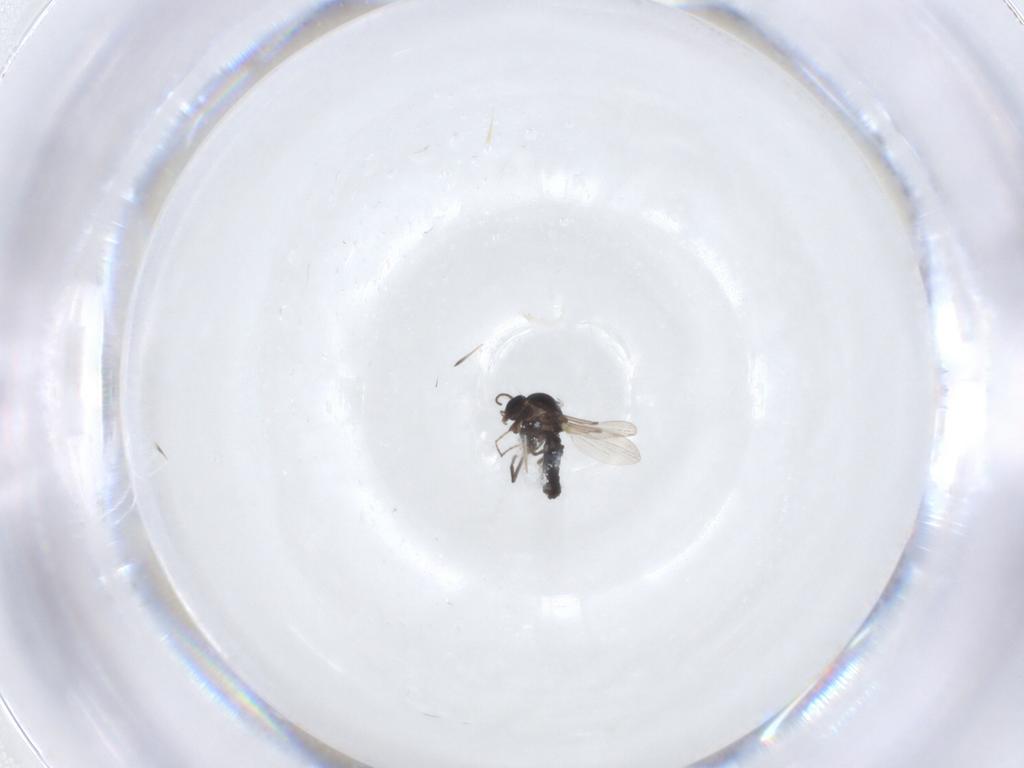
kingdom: Animalia
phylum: Arthropoda
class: Insecta
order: Diptera
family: Ceratopogonidae
